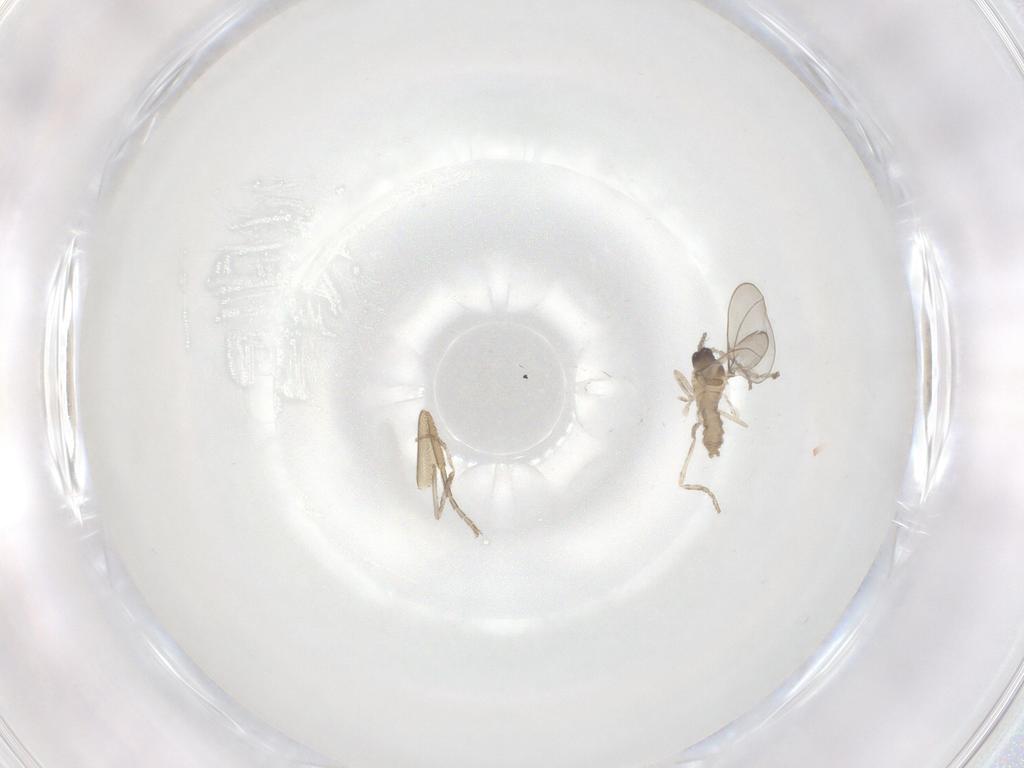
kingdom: Animalia
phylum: Arthropoda
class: Insecta
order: Diptera
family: Cecidomyiidae
